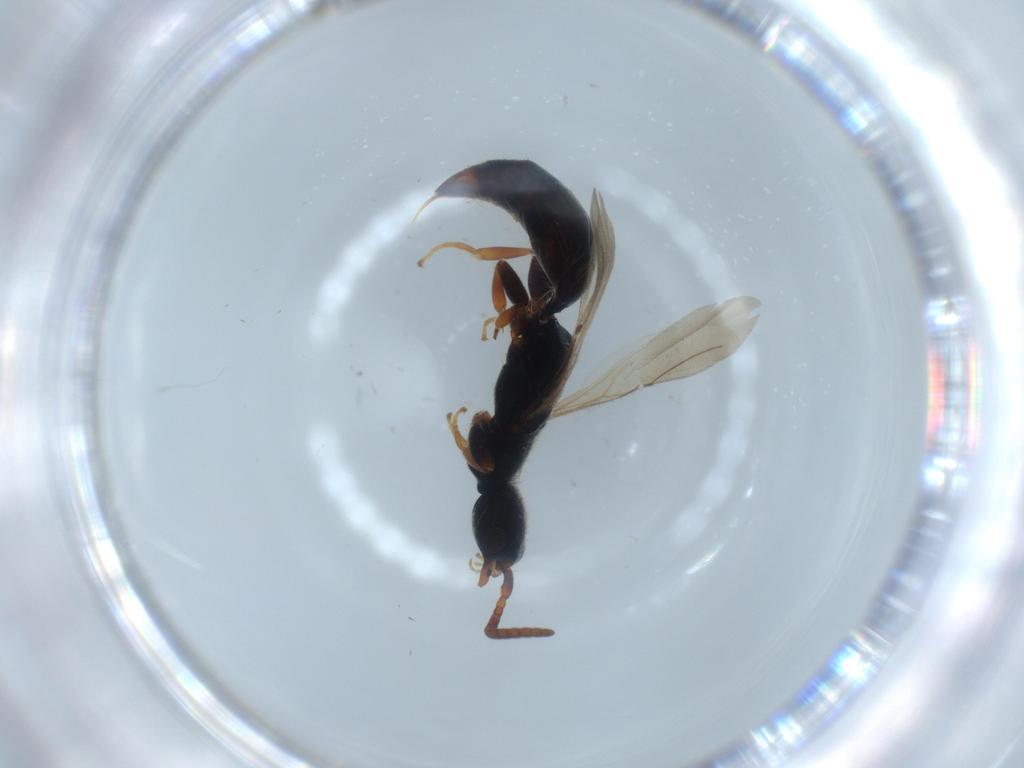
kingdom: Animalia
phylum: Arthropoda
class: Insecta
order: Hymenoptera
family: Bethylidae
